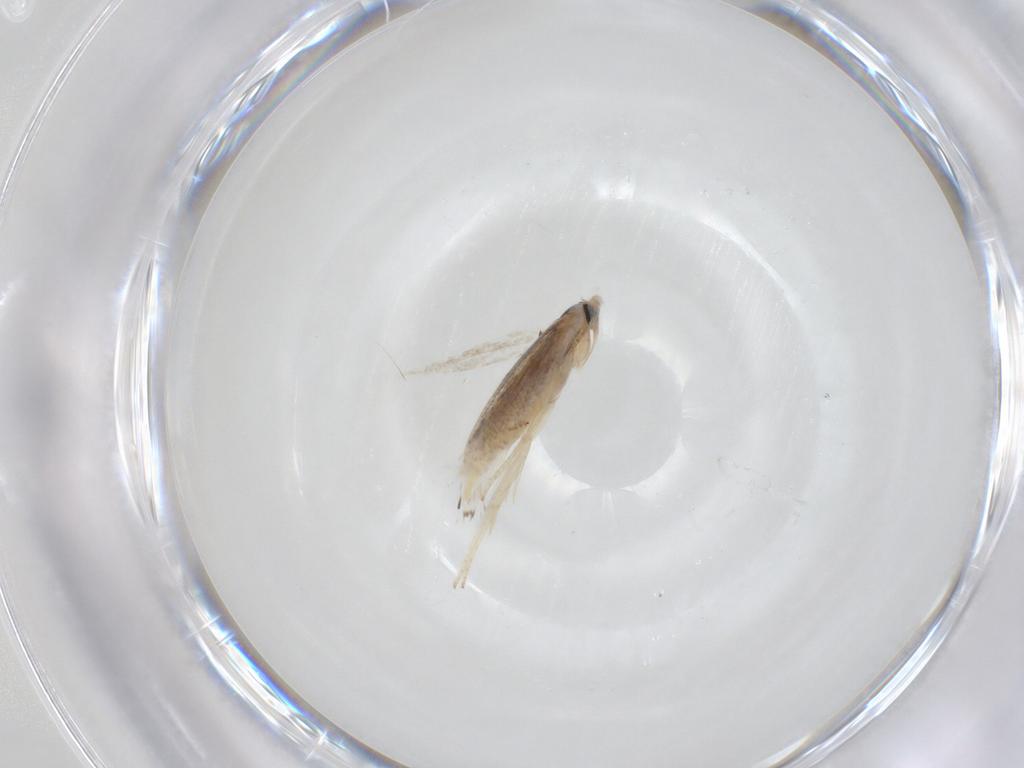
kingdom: Animalia
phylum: Arthropoda
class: Insecta
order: Lepidoptera
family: Lyonetiidae
